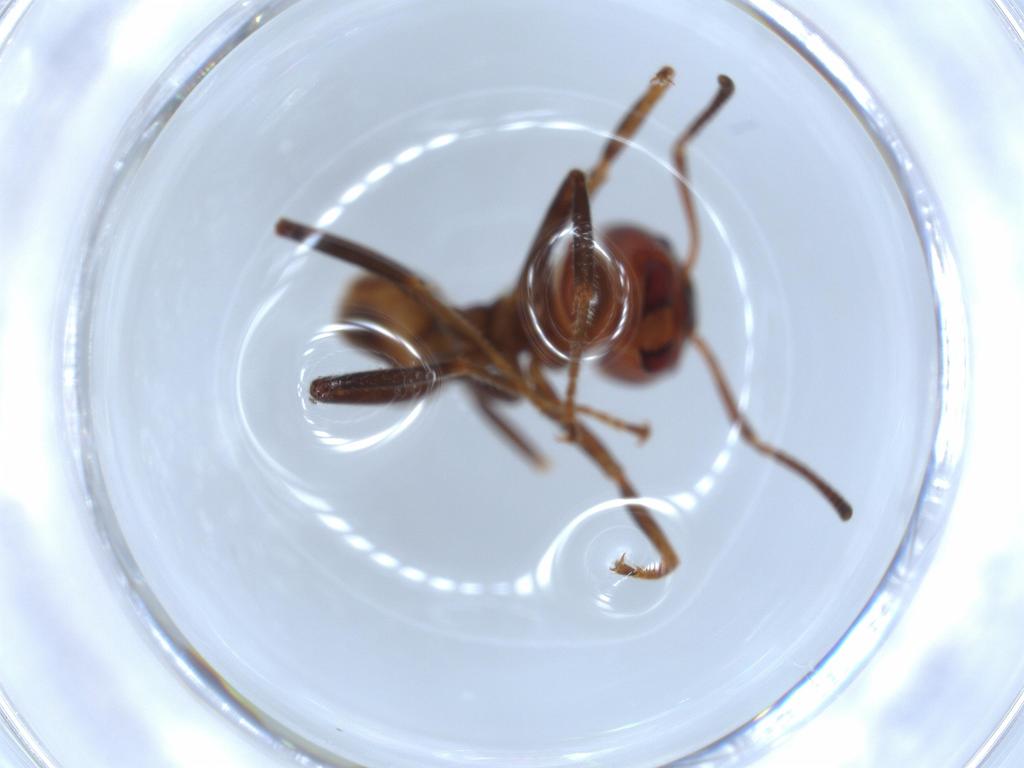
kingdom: Animalia
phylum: Arthropoda
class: Insecta
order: Hymenoptera
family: Formicidae
